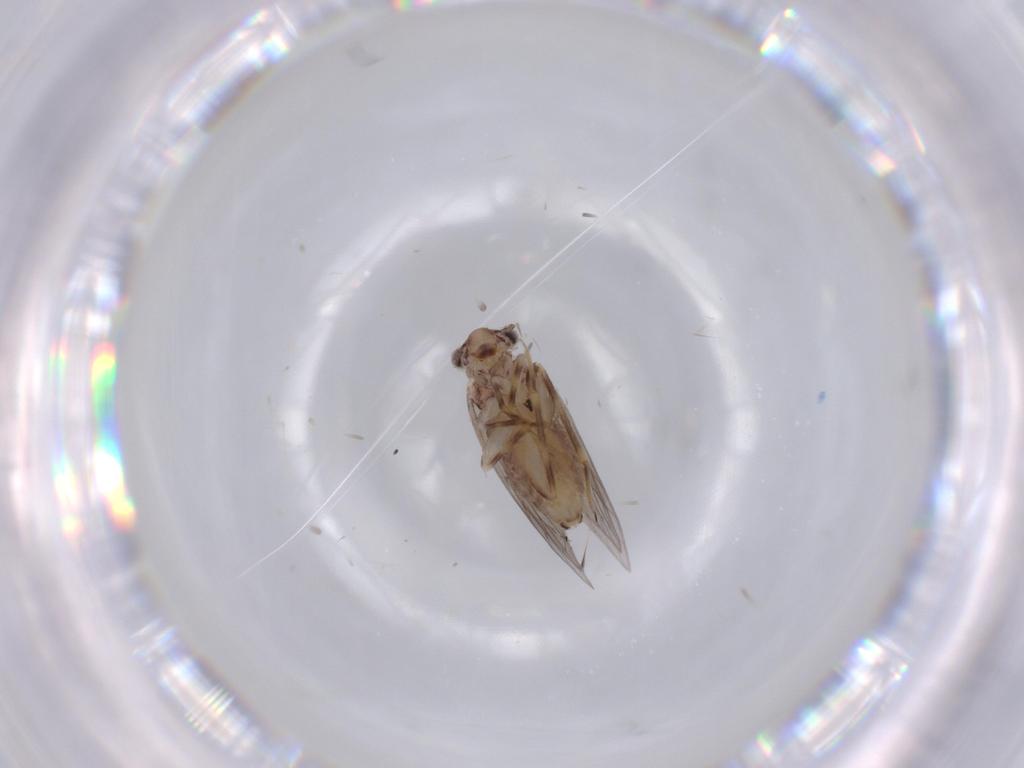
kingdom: Animalia
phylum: Arthropoda
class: Insecta
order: Psocodea
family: Lepidopsocidae
